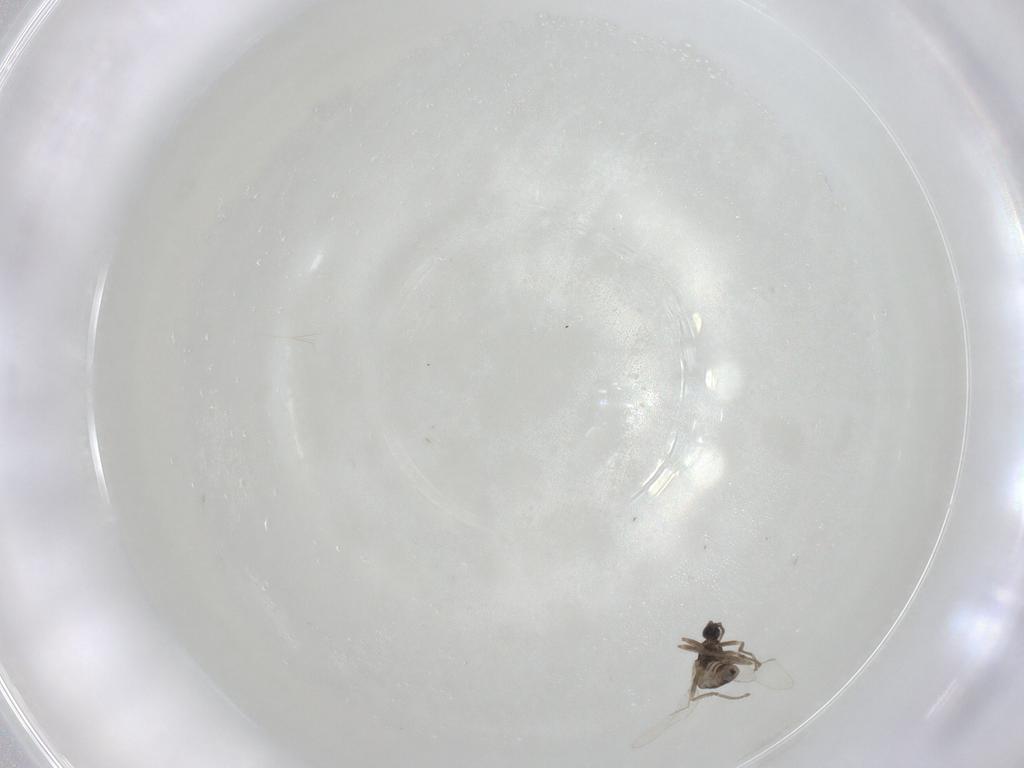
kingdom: Animalia
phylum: Arthropoda
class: Insecta
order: Diptera
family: Cecidomyiidae
